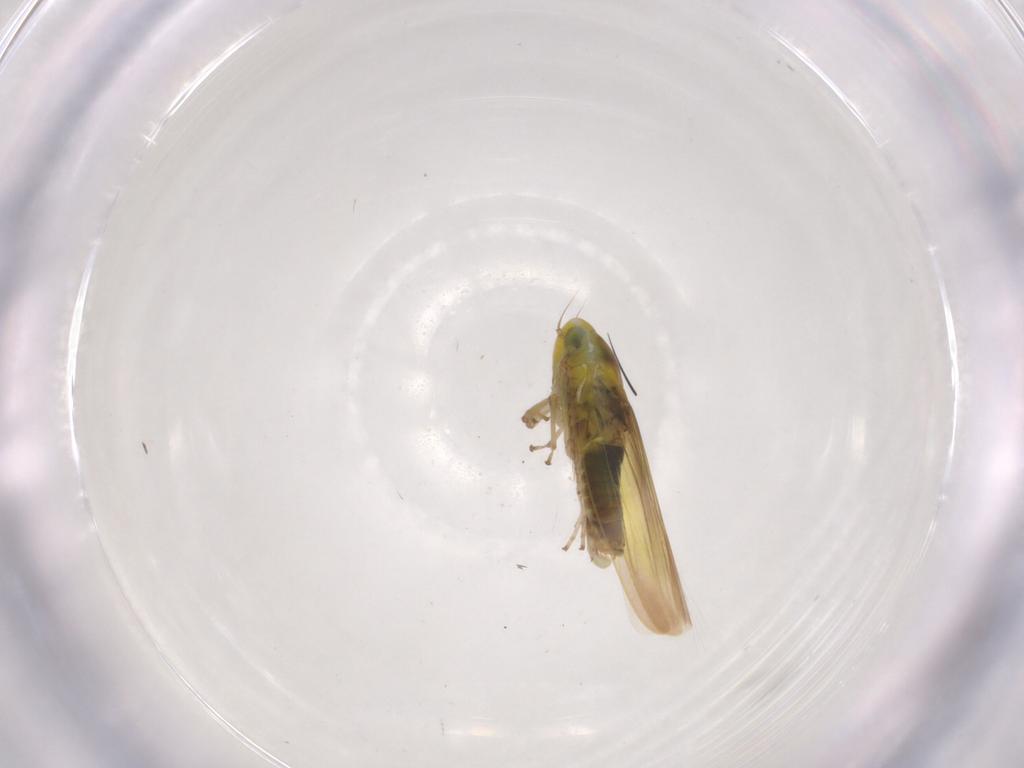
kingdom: Animalia
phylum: Arthropoda
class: Insecta
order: Hemiptera
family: Cicadellidae
